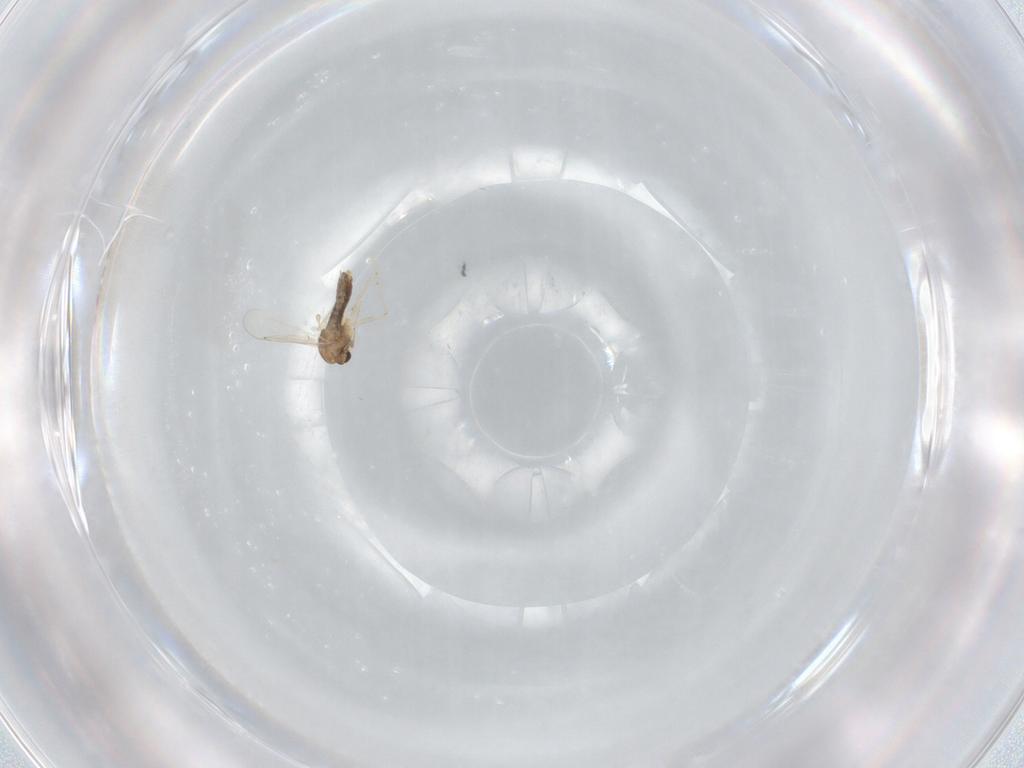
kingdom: Animalia
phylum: Arthropoda
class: Insecta
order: Diptera
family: Chironomidae
